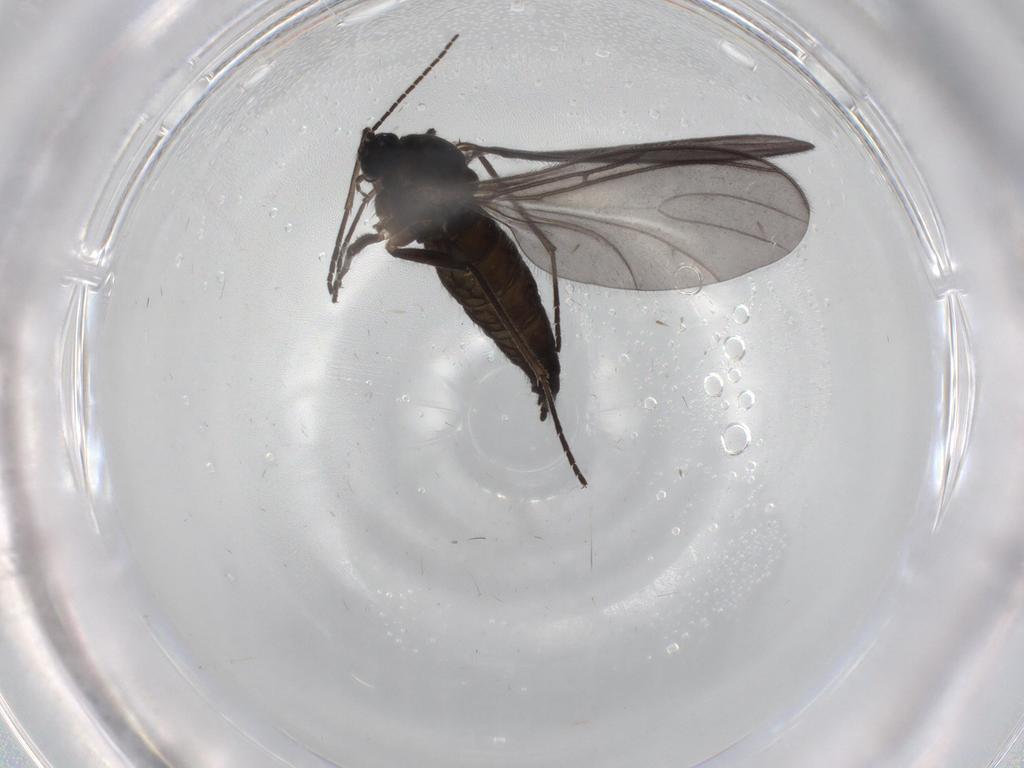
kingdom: Animalia
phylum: Arthropoda
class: Insecta
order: Diptera
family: Sciaridae
